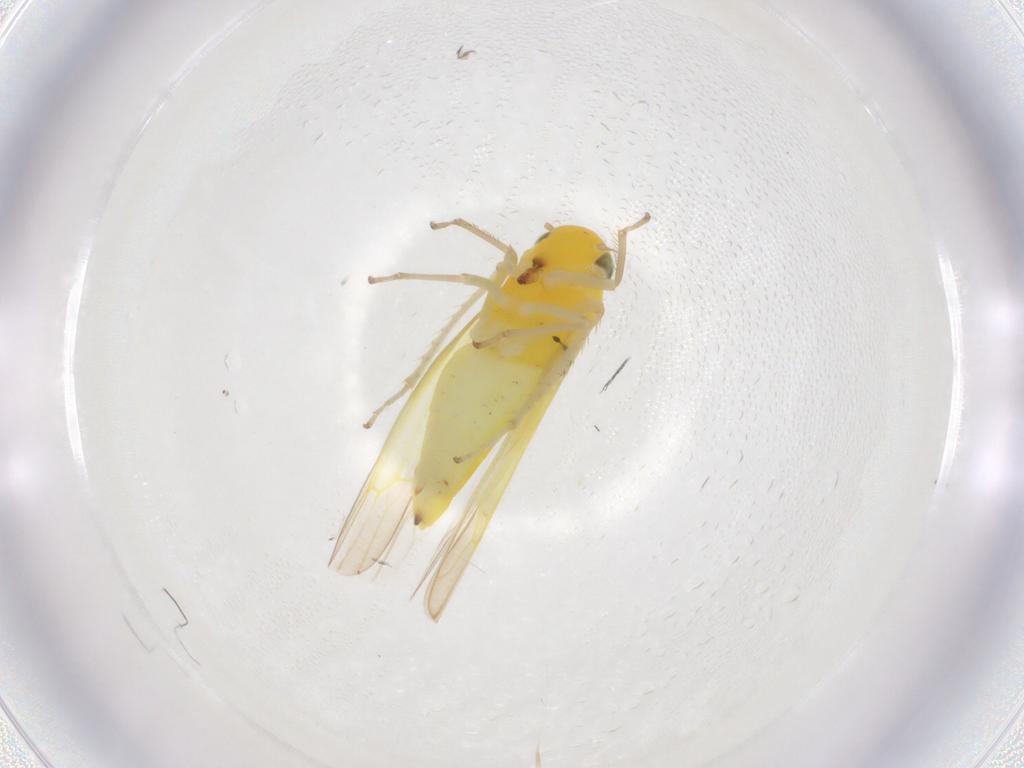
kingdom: Animalia
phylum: Arthropoda
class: Insecta
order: Hemiptera
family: Cicadellidae
